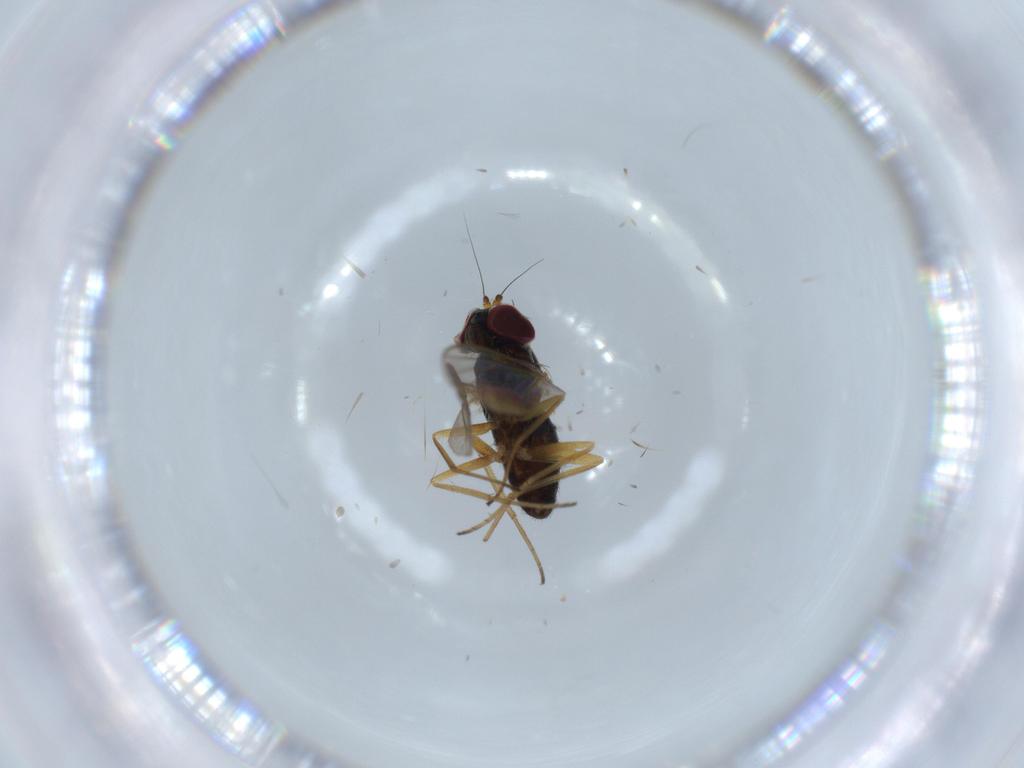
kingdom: Animalia
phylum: Arthropoda
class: Insecta
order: Diptera
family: Dolichopodidae
